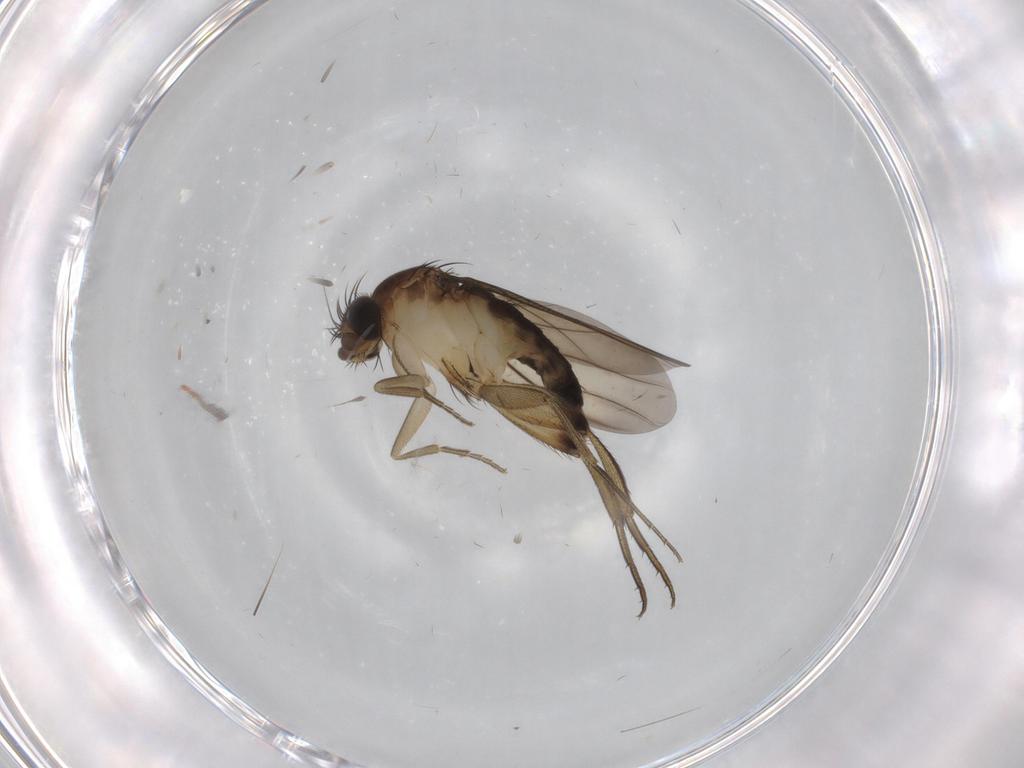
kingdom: Animalia
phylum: Arthropoda
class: Insecta
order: Diptera
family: Chironomidae
